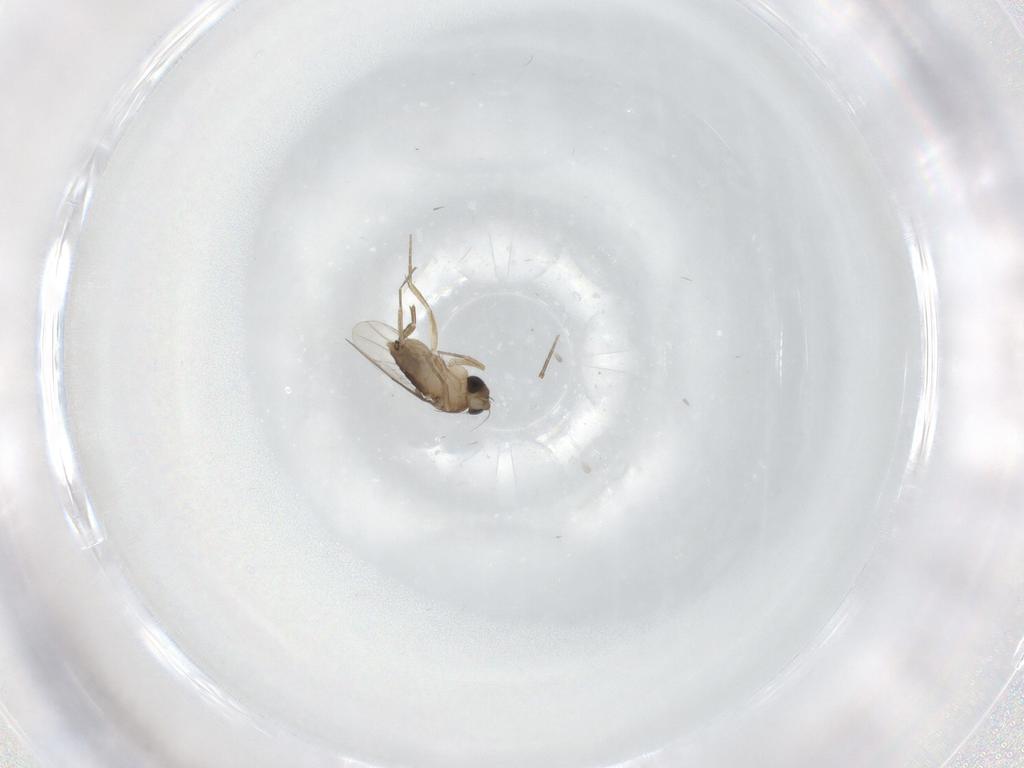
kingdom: Animalia
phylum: Arthropoda
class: Insecta
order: Diptera
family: Phoridae
